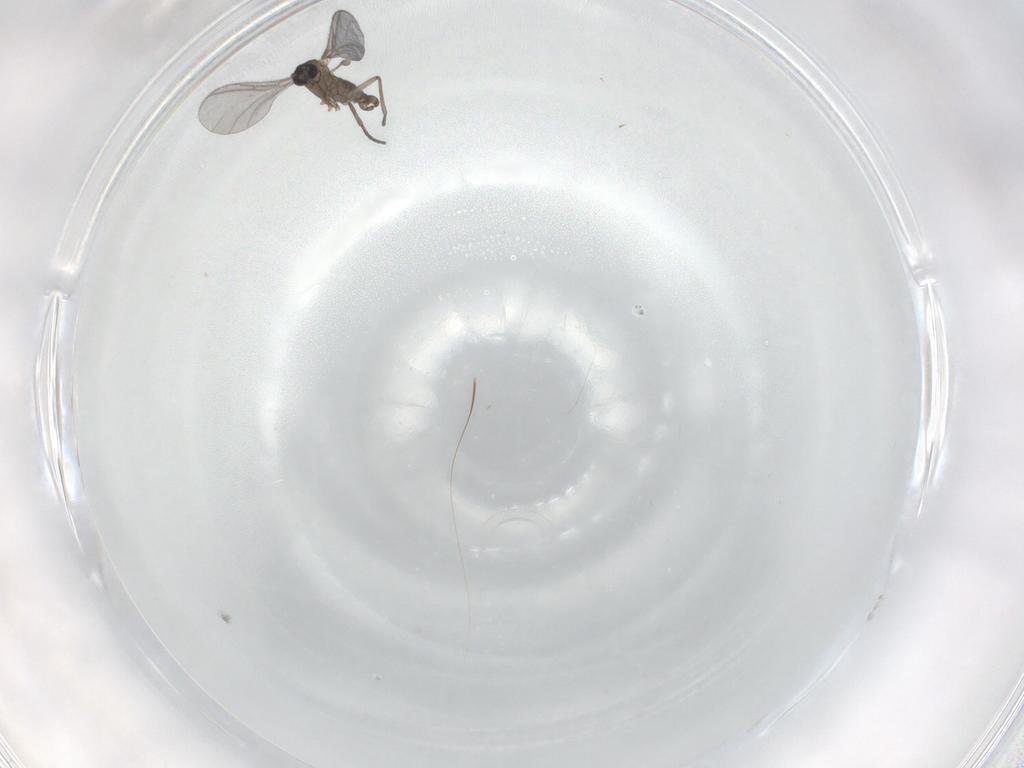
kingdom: Animalia
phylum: Arthropoda
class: Insecta
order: Diptera
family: Sciaridae
